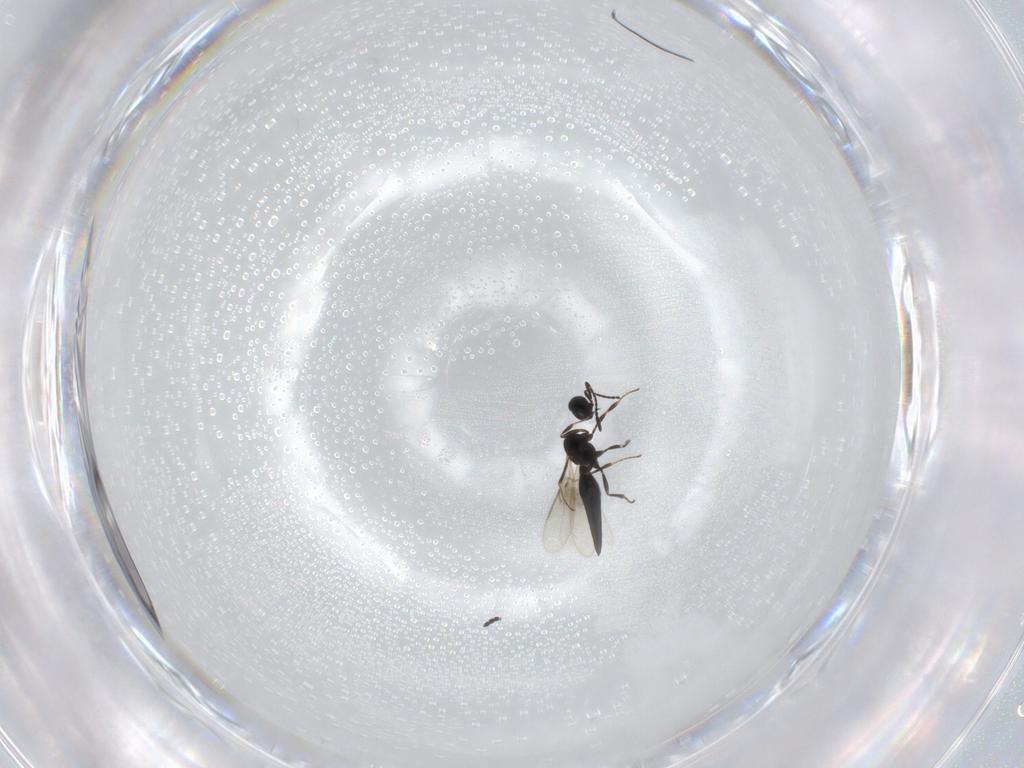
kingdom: Animalia
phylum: Arthropoda
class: Insecta
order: Hymenoptera
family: Scelionidae
